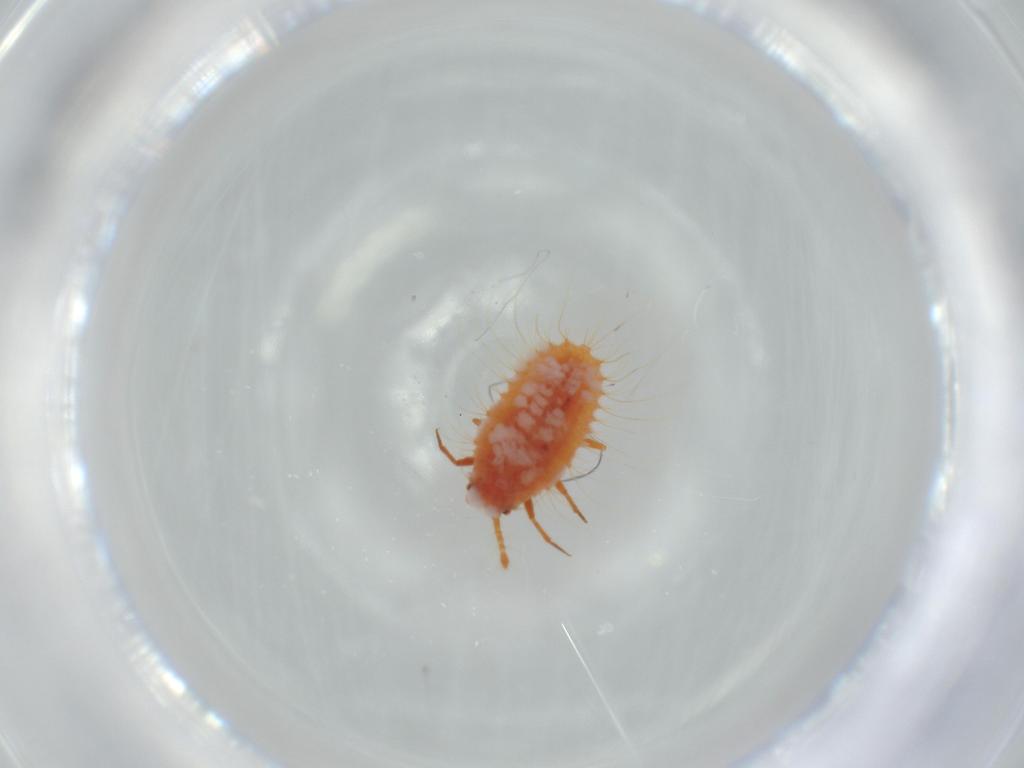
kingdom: Animalia
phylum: Arthropoda
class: Insecta
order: Hemiptera
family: Coccoidea_incertae_sedis
